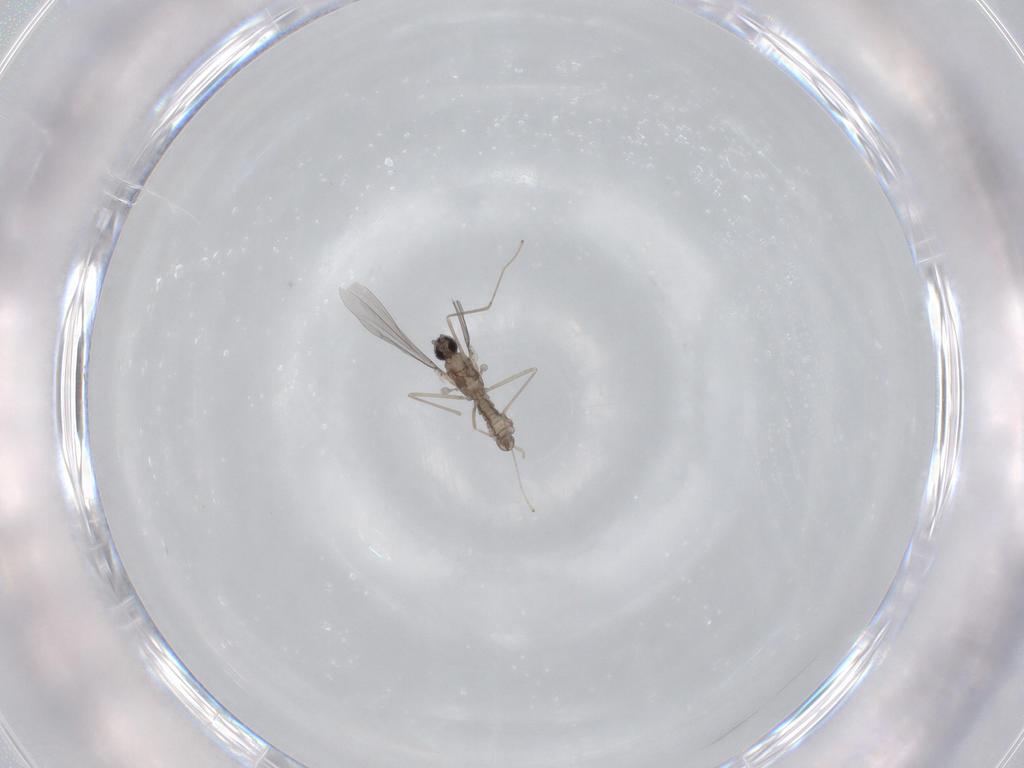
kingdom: Animalia
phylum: Arthropoda
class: Insecta
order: Diptera
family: Cecidomyiidae
